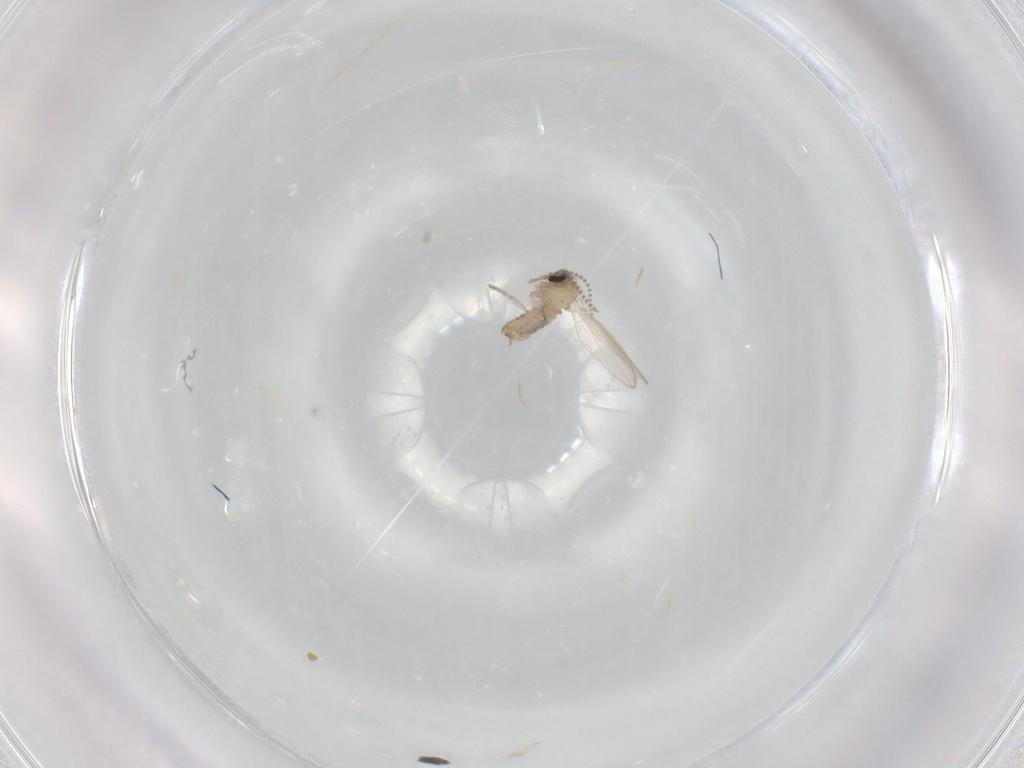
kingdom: Animalia
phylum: Arthropoda
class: Insecta
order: Diptera
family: Psychodidae
